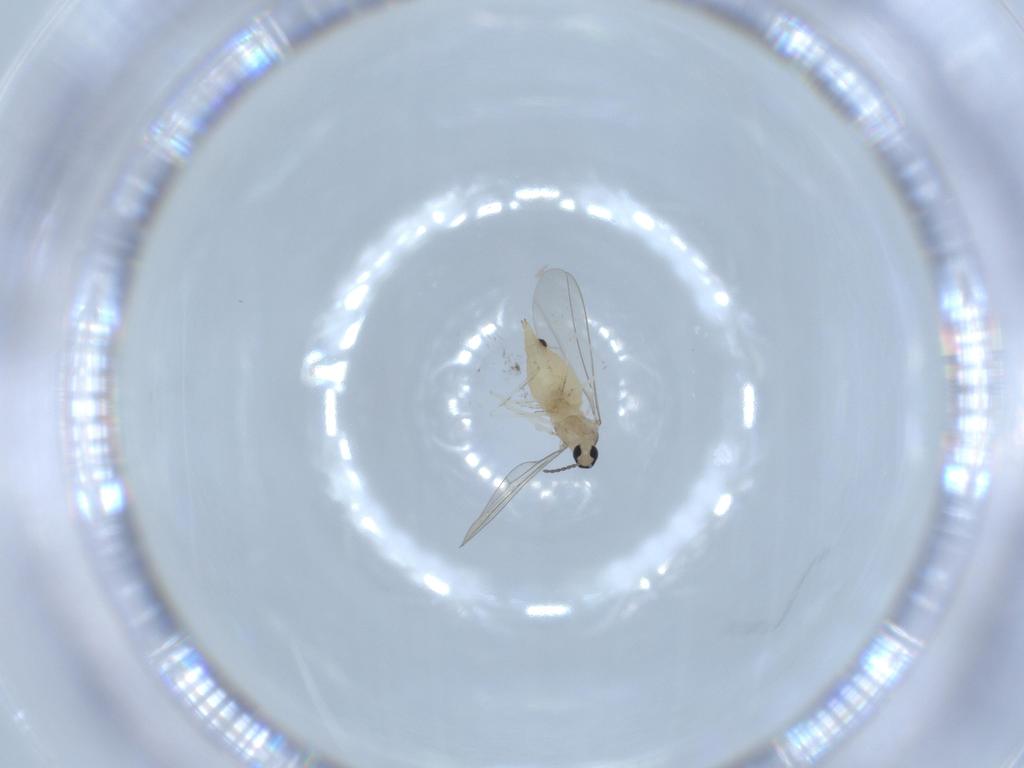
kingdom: Animalia
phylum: Arthropoda
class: Insecta
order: Diptera
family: Cecidomyiidae
